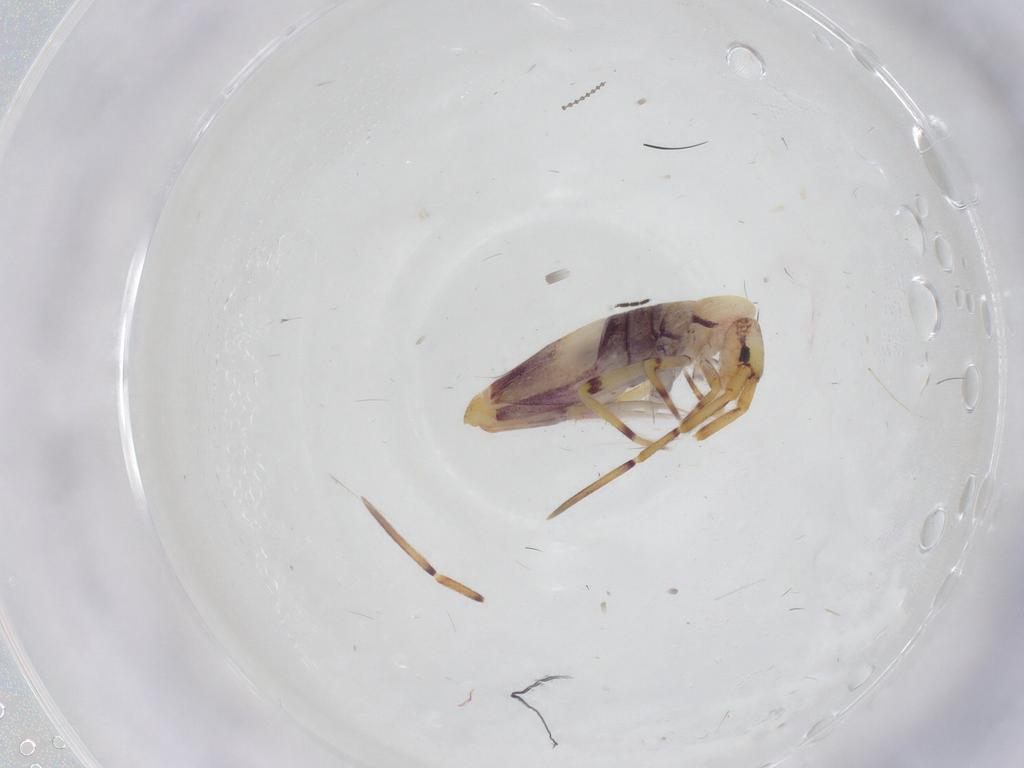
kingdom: Animalia
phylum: Arthropoda
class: Collembola
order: Entomobryomorpha
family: Entomobryidae
